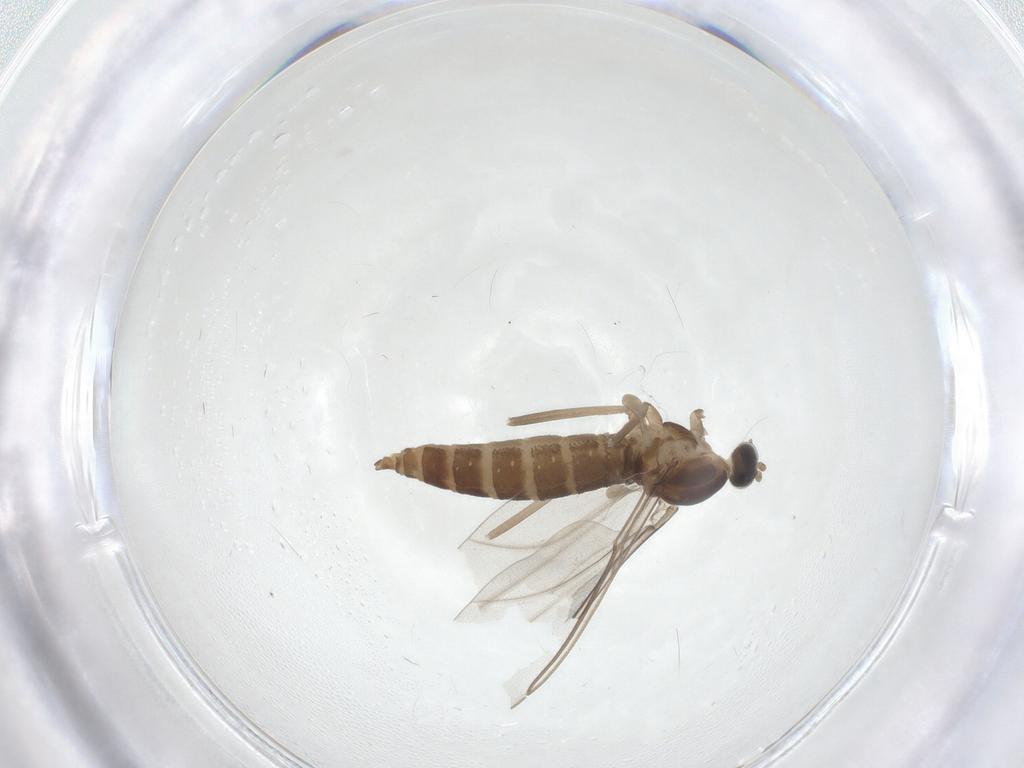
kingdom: Animalia
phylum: Arthropoda
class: Insecta
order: Diptera
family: Cecidomyiidae
